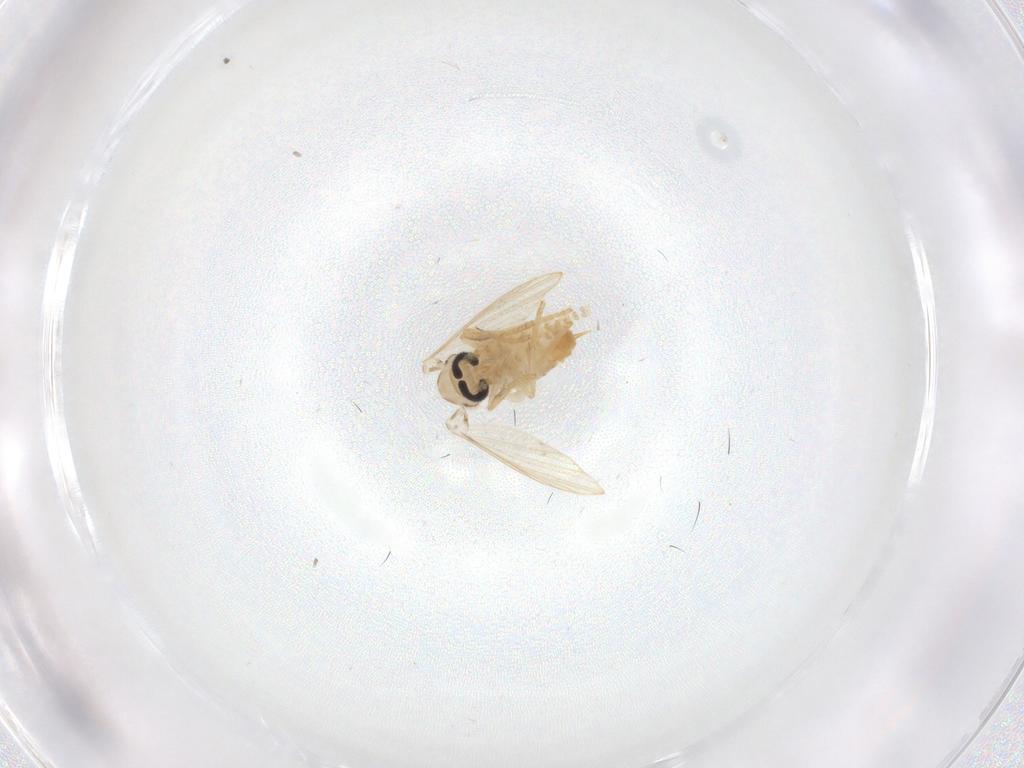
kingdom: Animalia
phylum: Arthropoda
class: Insecta
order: Diptera
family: Psychodidae
